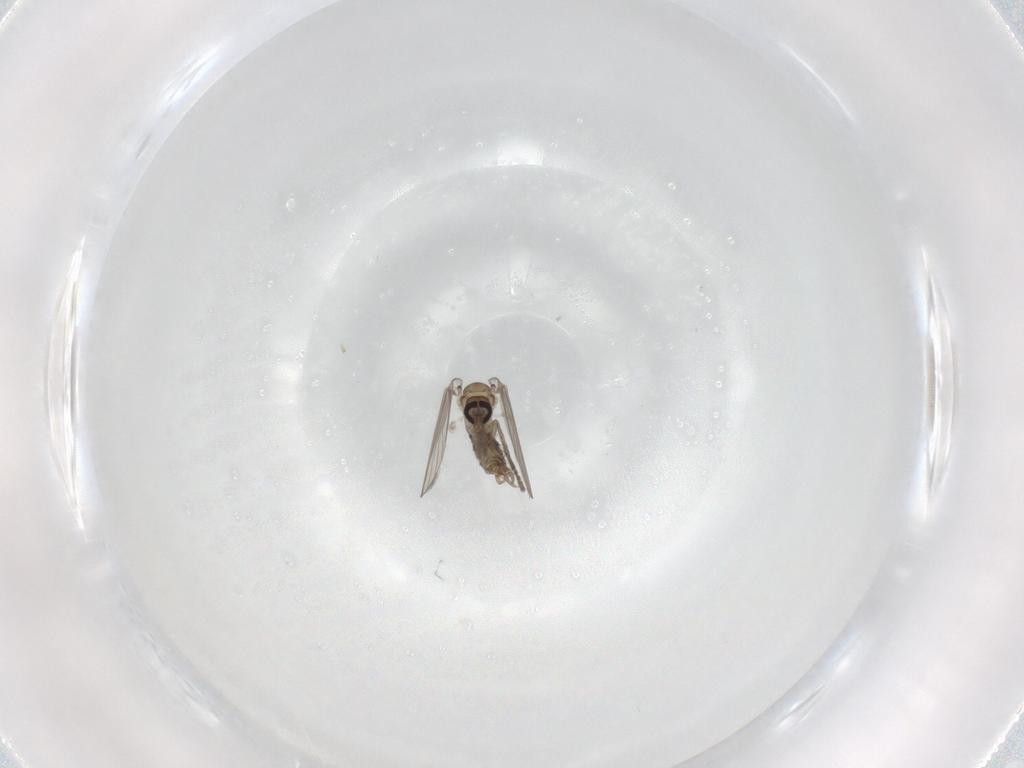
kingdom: Animalia
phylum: Arthropoda
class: Insecta
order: Diptera
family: Psychodidae
